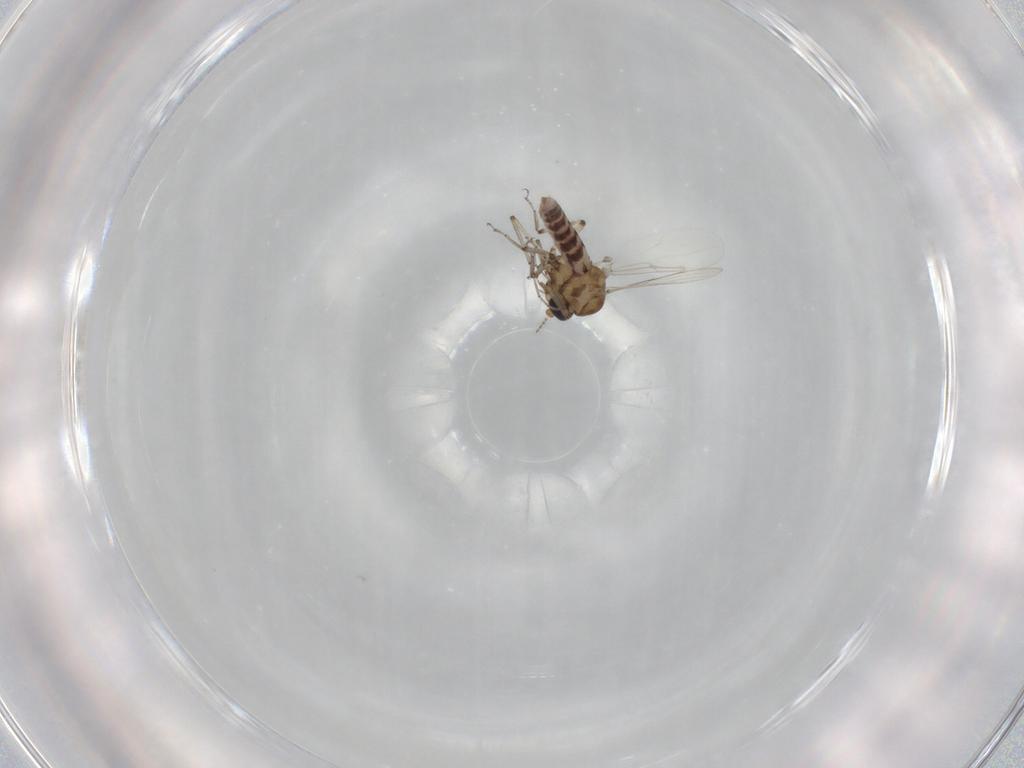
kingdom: Animalia
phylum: Arthropoda
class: Insecta
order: Diptera
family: Ceratopogonidae
